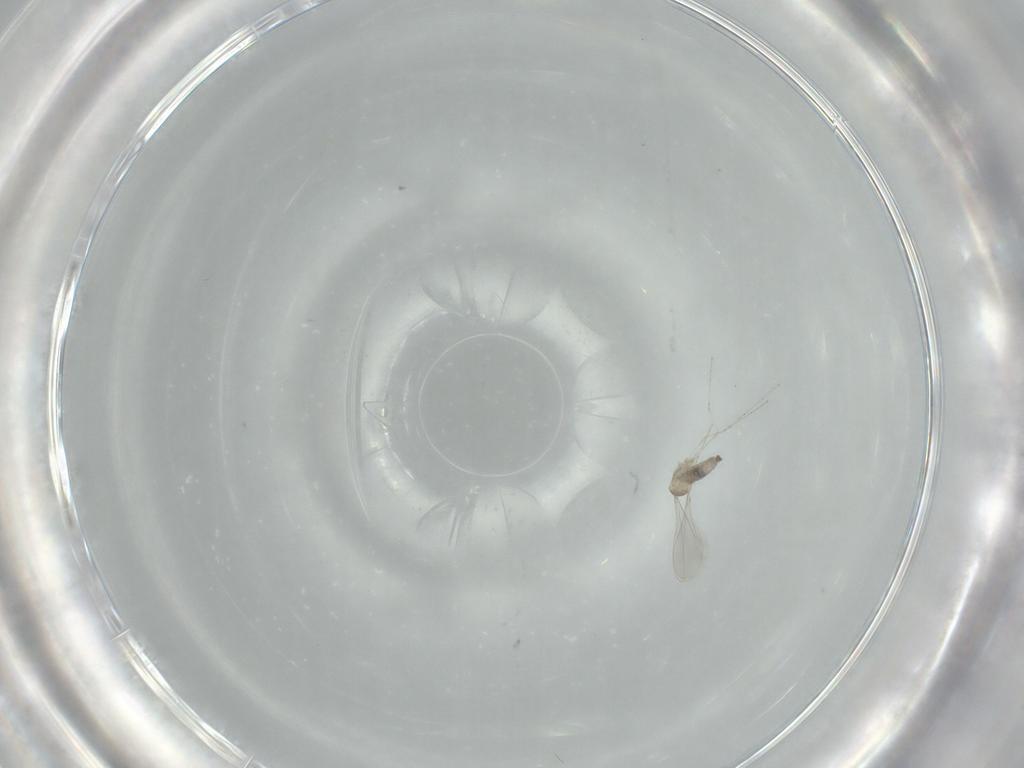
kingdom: Animalia
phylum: Arthropoda
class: Insecta
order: Diptera
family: Cecidomyiidae
